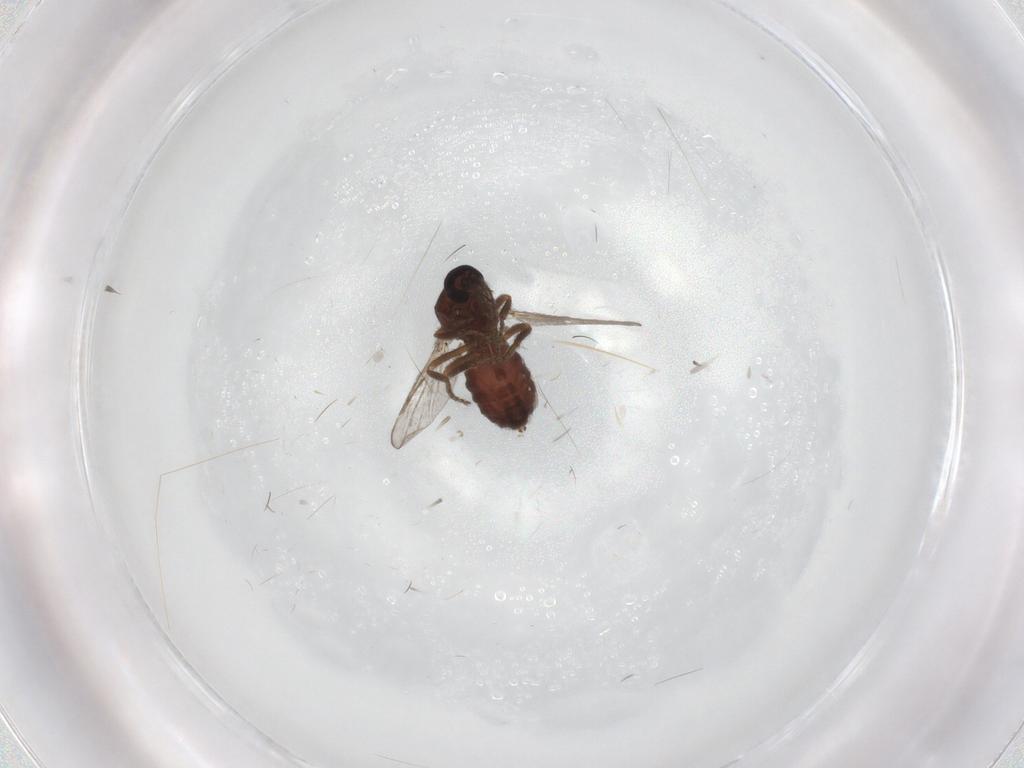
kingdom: Animalia
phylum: Arthropoda
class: Insecta
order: Diptera
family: Ceratopogonidae
